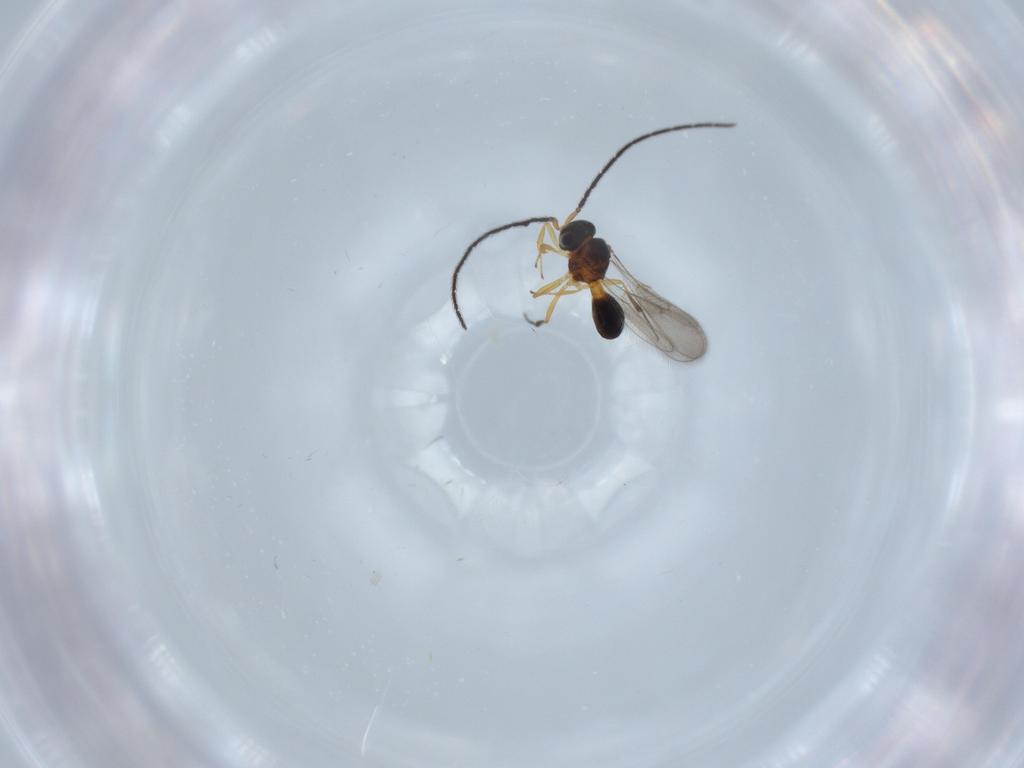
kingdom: Animalia
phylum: Arthropoda
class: Insecta
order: Hymenoptera
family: Scelionidae
